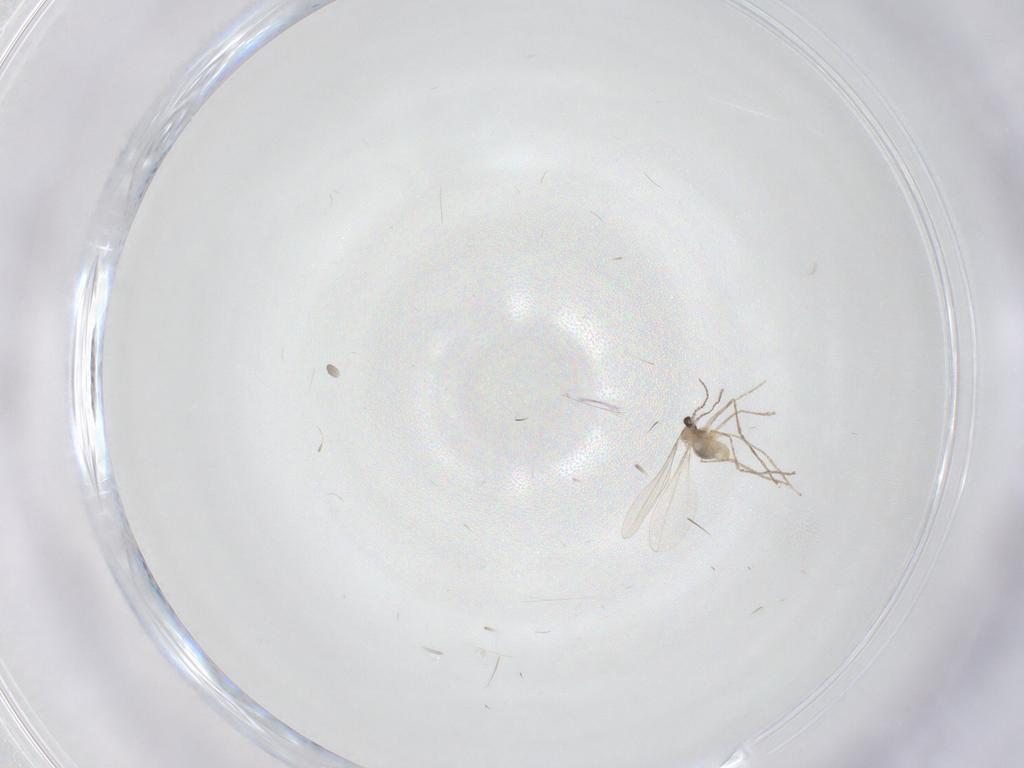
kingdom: Animalia
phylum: Arthropoda
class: Insecta
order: Diptera
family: Cecidomyiidae
